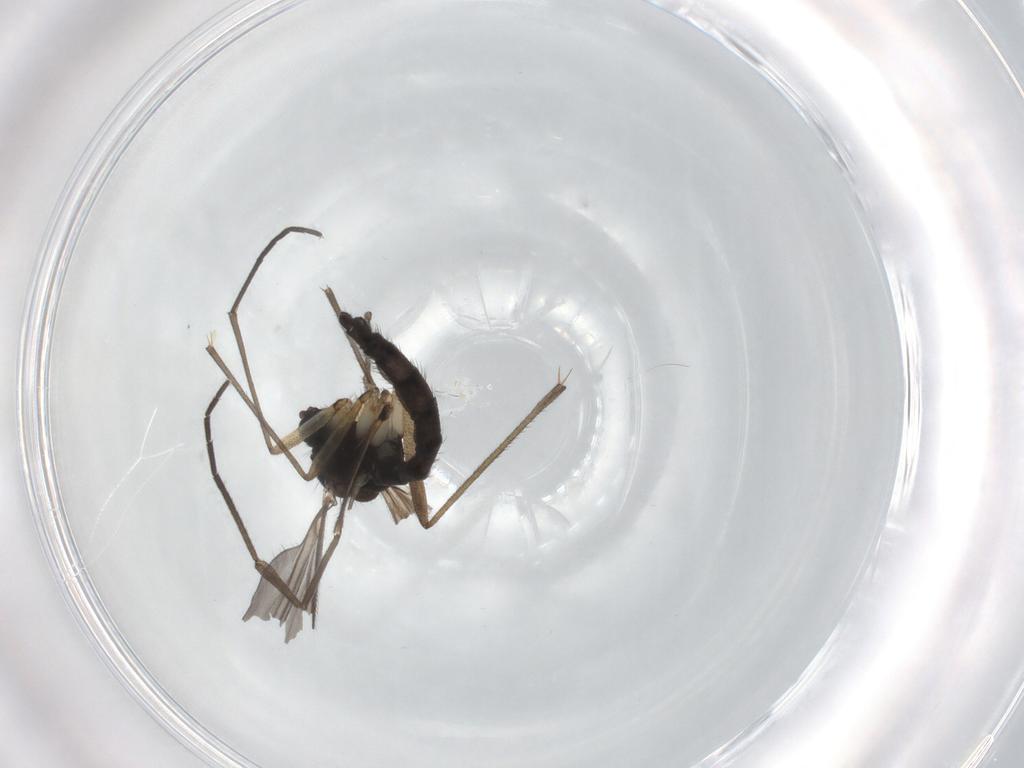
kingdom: Animalia
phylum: Arthropoda
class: Insecta
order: Diptera
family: Sciaridae
